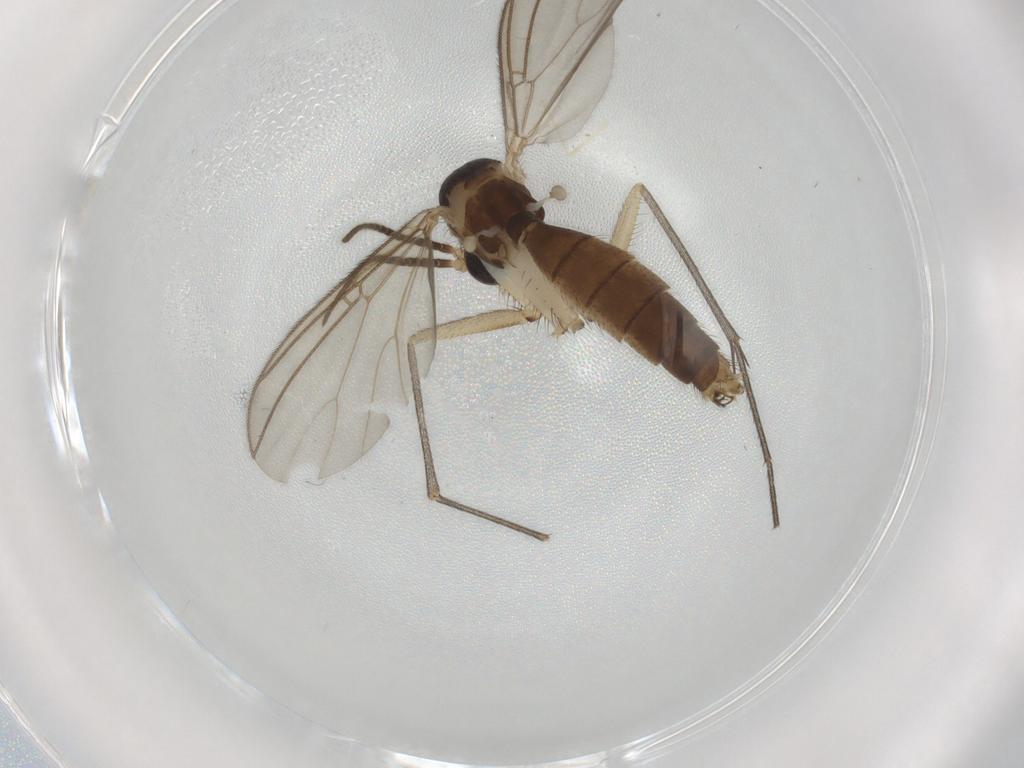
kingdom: Animalia
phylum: Arthropoda
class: Insecta
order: Diptera
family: Mycetophilidae
